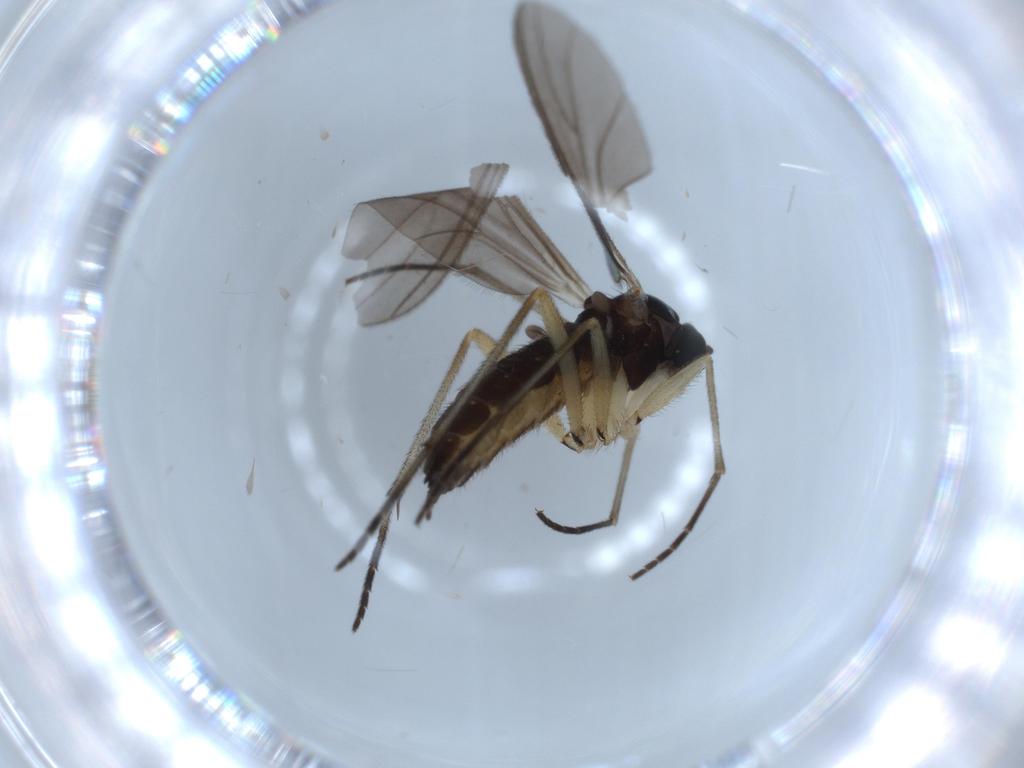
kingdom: Animalia
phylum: Arthropoda
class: Insecta
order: Diptera
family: Sciaridae
